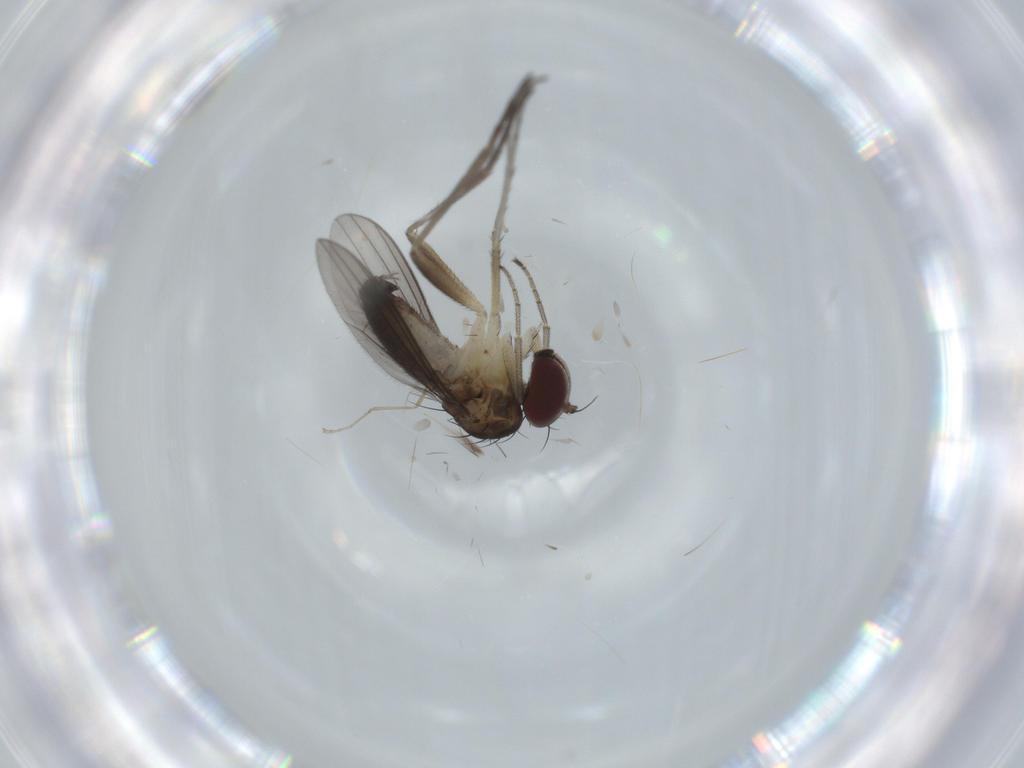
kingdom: Animalia
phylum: Arthropoda
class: Insecta
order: Diptera
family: Dolichopodidae
